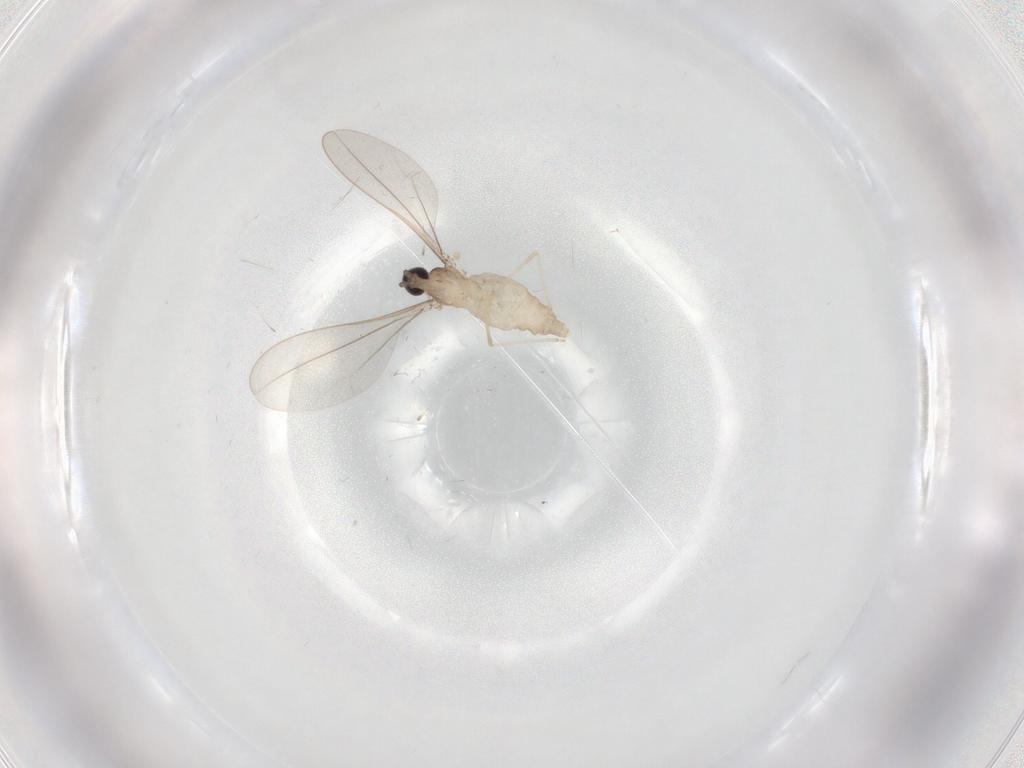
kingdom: Animalia
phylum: Arthropoda
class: Insecta
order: Diptera
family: Cecidomyiidae
